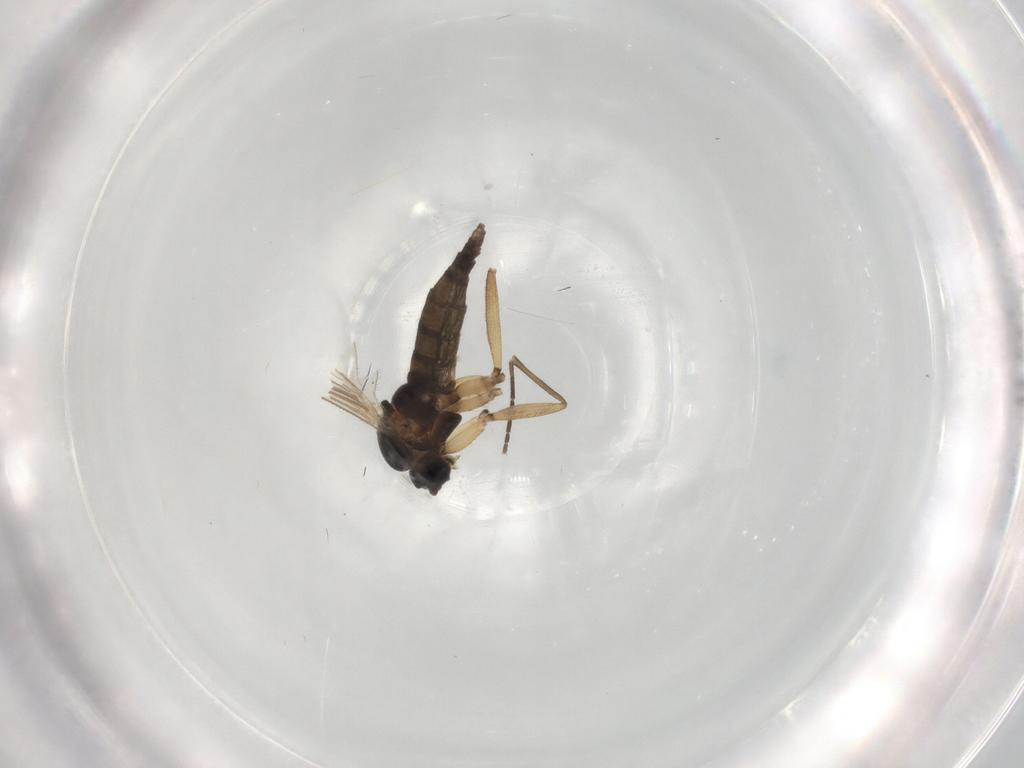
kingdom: Animalia
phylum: Arthropoda
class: Insecta
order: Diptera
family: Sciaridae
